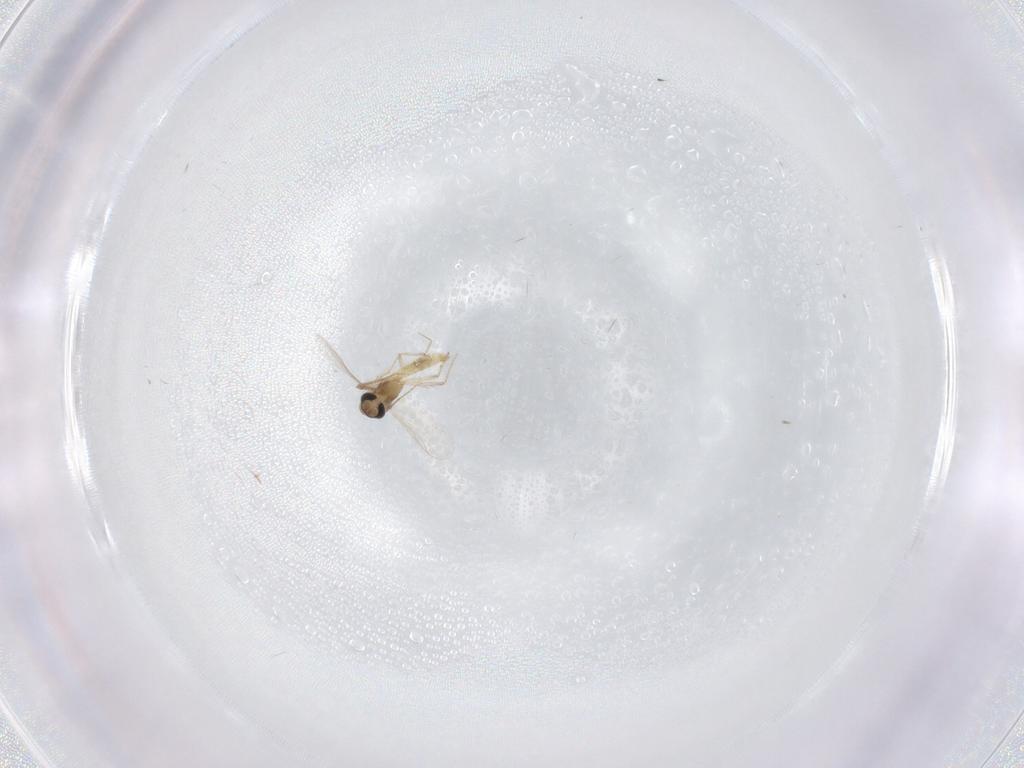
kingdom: Animalia
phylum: Arthropoda
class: Insecta
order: Diptera
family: Chironomidae
